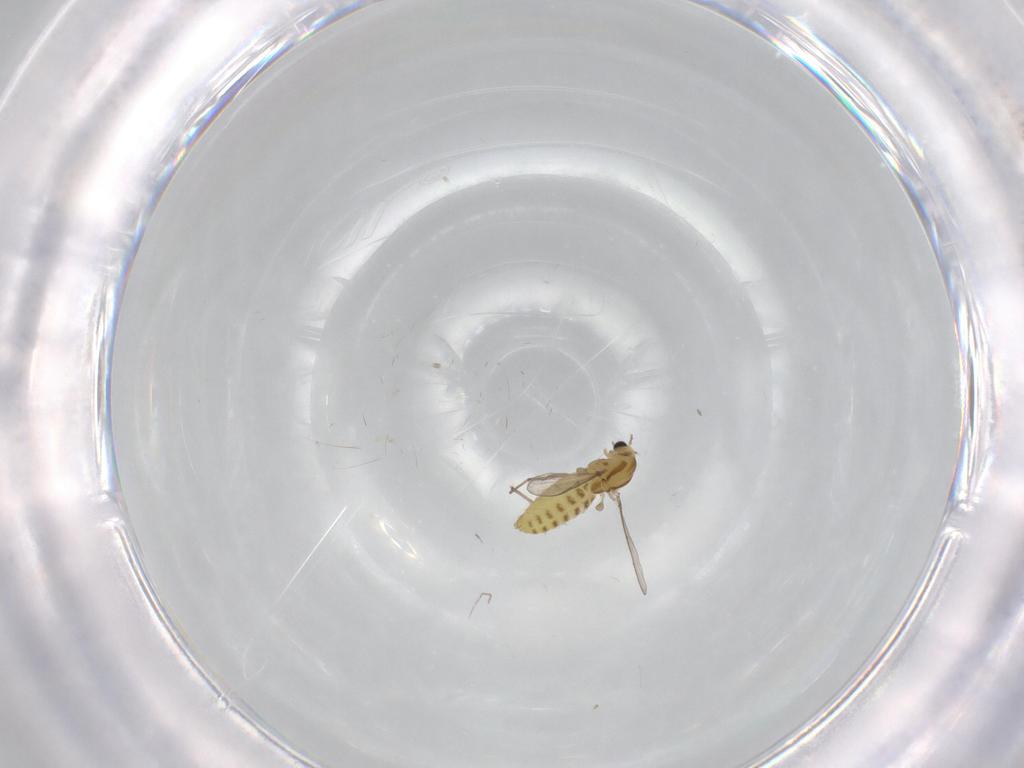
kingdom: Animalia
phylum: Arthropoda
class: Insecta
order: Diptera
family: Chironomidae
